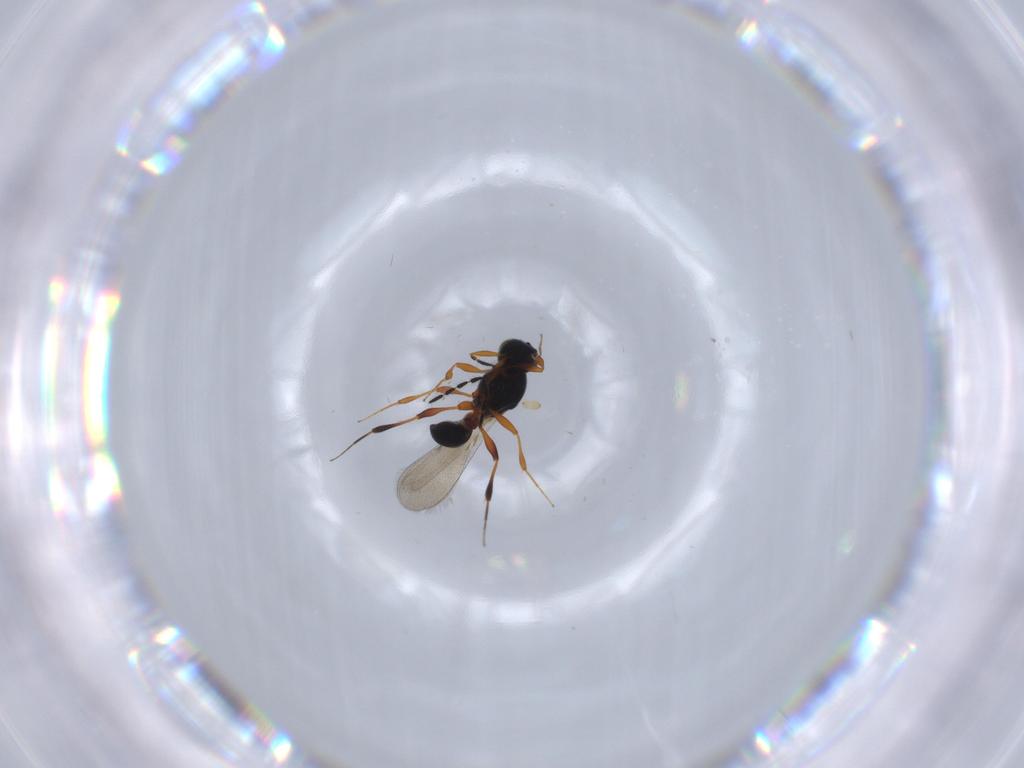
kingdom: Animalia
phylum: Arthropoda
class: Insecta
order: Hymenoptera
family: Platygastridae
